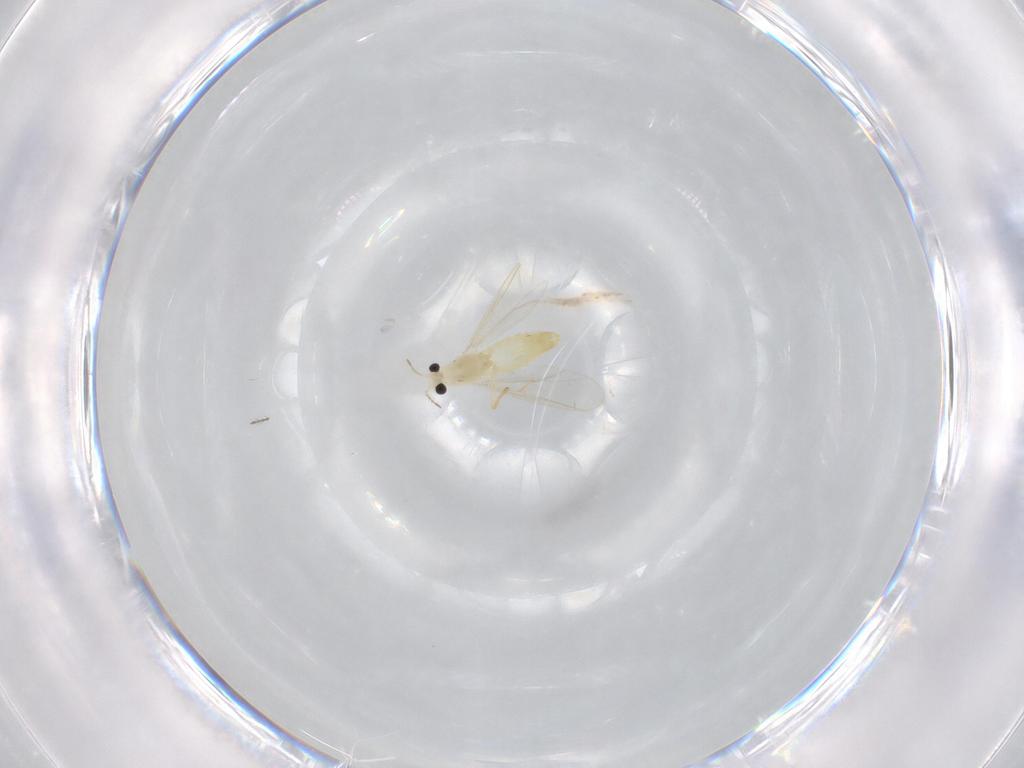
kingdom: Animalia
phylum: Arthropoda
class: Insecta
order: Diptera
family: Chironomidae
